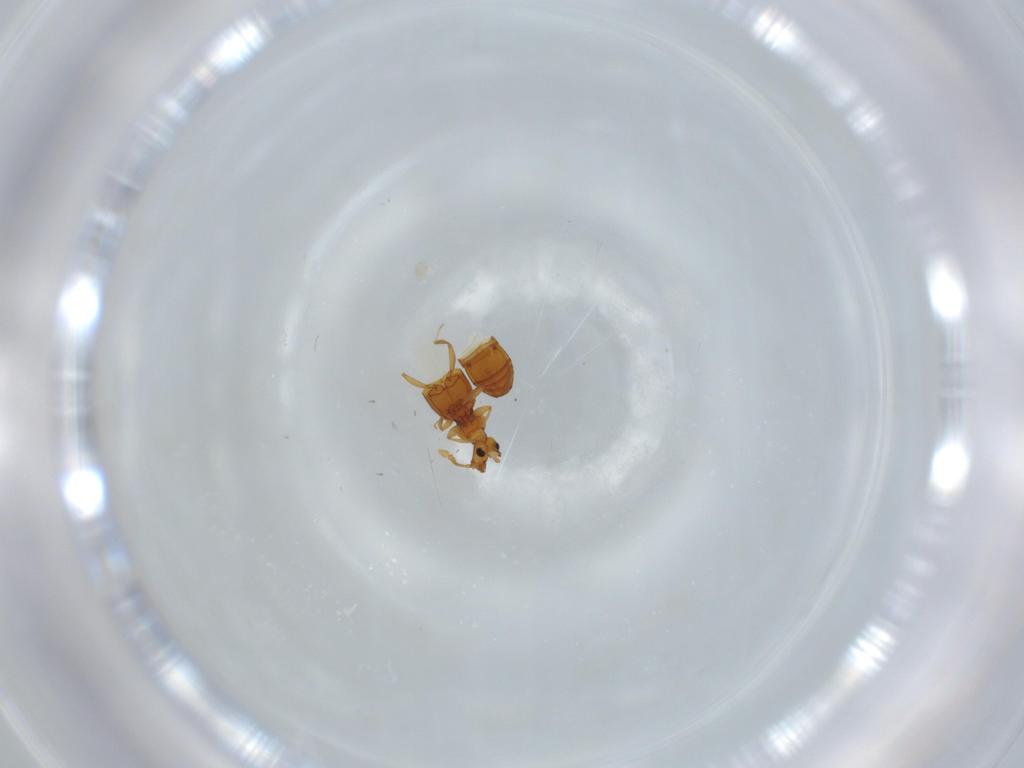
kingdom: Animalia
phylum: Arthropoda
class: Insecta
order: Coleoptera
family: Staphylinidae
